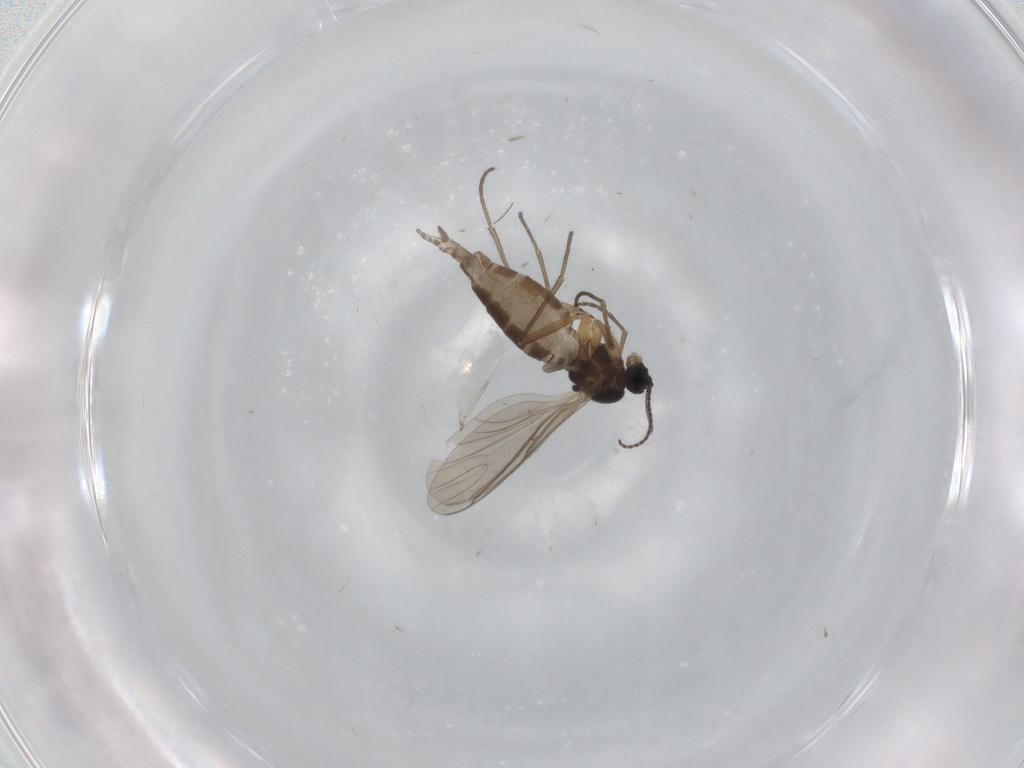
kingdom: Animalia
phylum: Arthropoda
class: Insecta
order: Diptera
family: Ceratopogonidae
